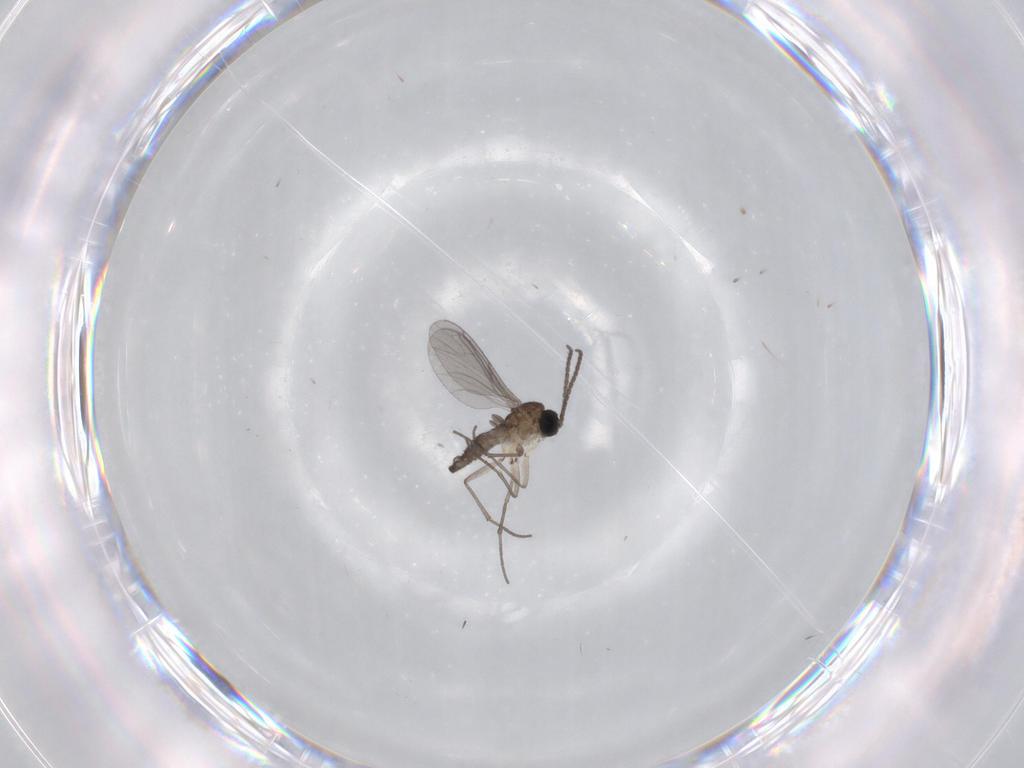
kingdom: Animalia
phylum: Arthropoda
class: Insecta
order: Diptera
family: Sciaridae
